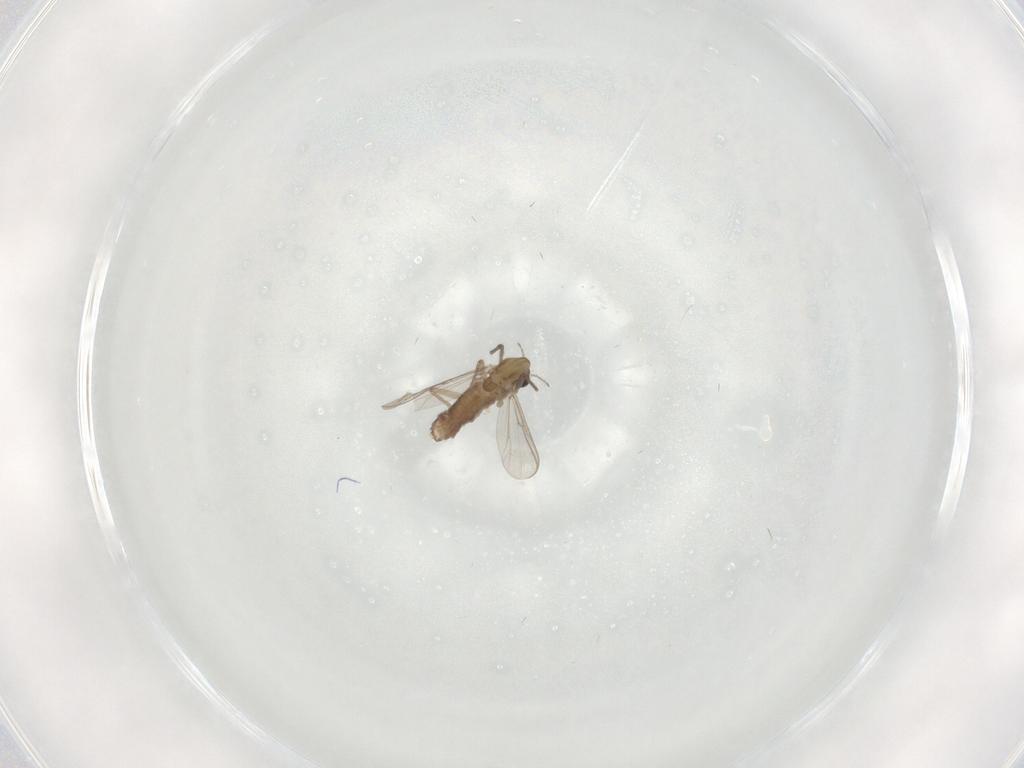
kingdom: Animalia
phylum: Arthropoda
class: Insecta
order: Diptera
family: Chironomidae
